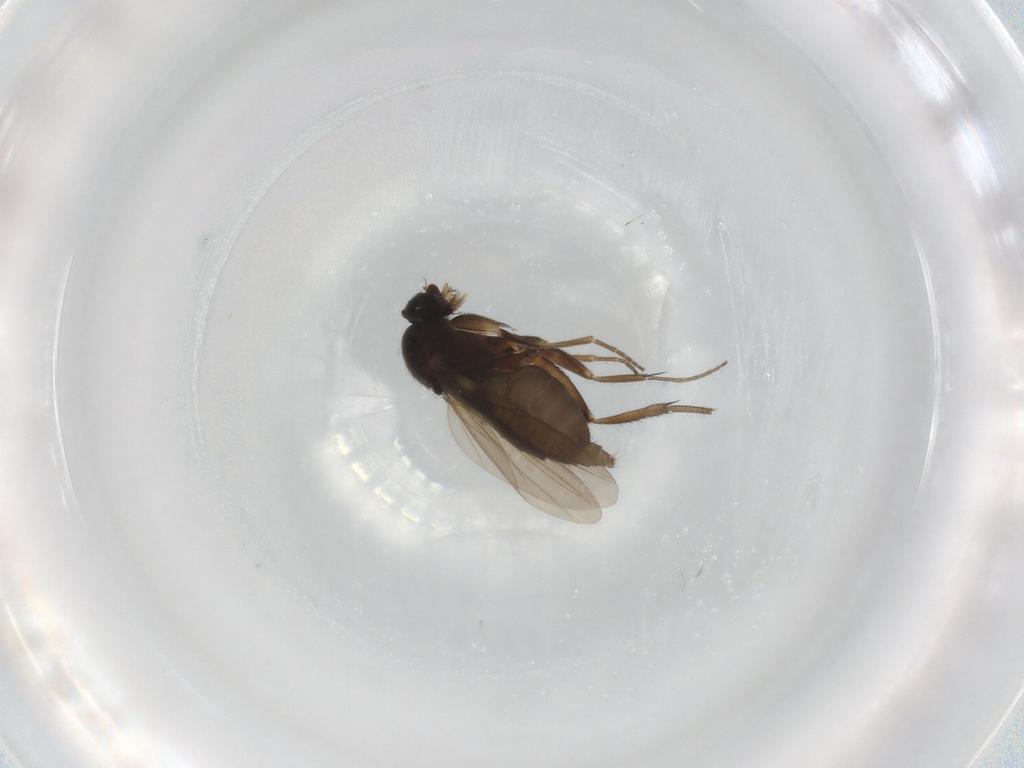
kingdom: Animalia
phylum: Arthropoda
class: Insecta
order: Diptera
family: Phoridae
